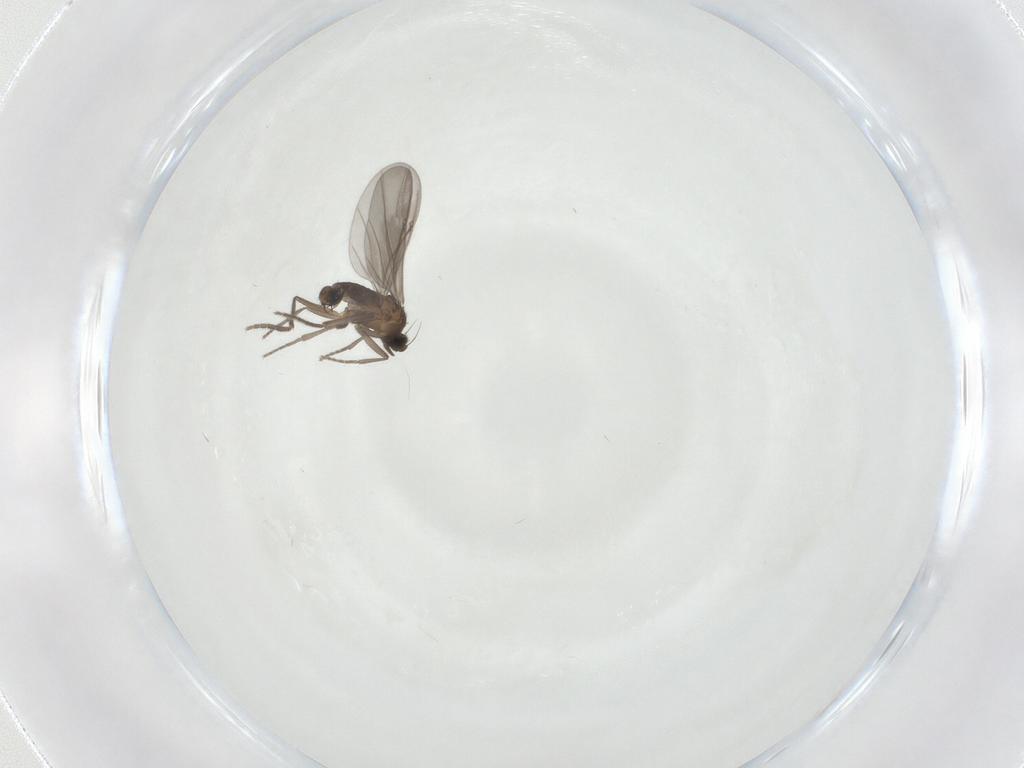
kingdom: Animalia
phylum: Arthropoda
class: Insecta
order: Diptera
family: Phoridae
